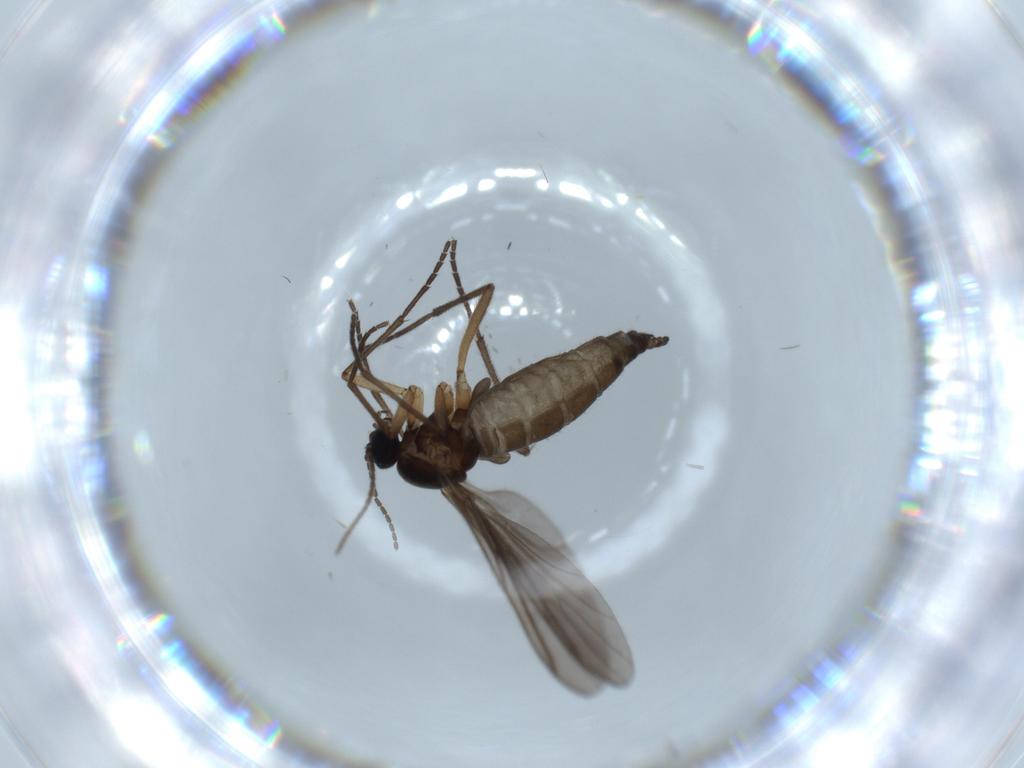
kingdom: Animalia
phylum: Arthropoda
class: Insecta
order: Diptera
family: Sciaridae
